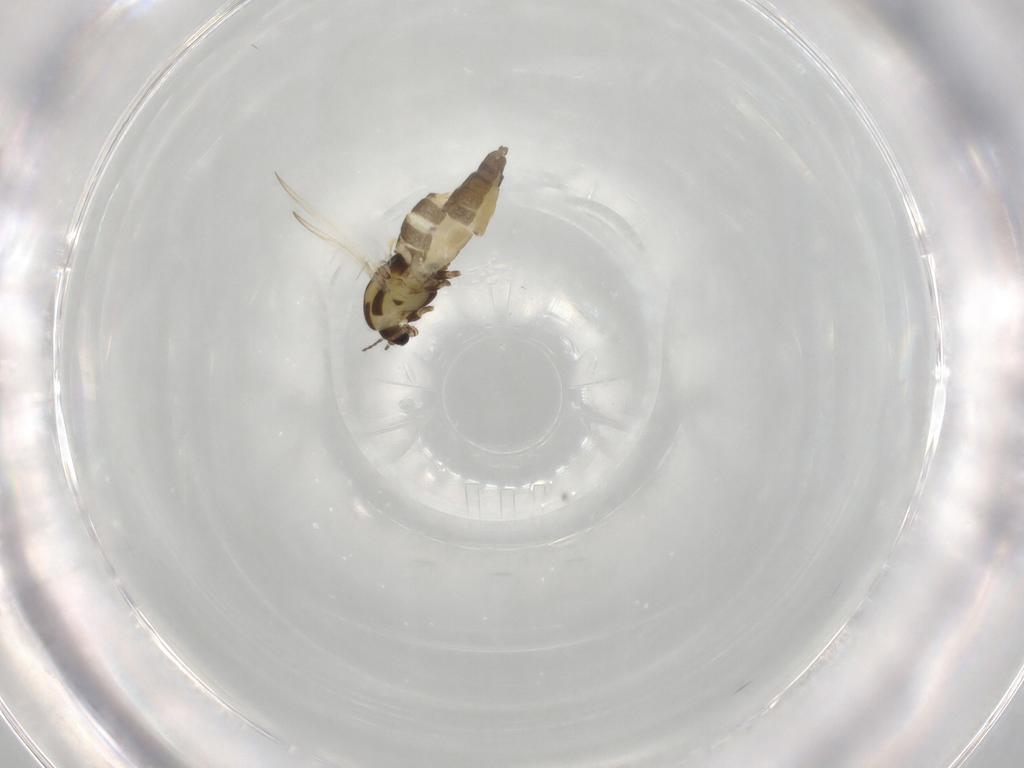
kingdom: Animalia
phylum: Arthropoda
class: Insecta
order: Diptera
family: Chironomidae
